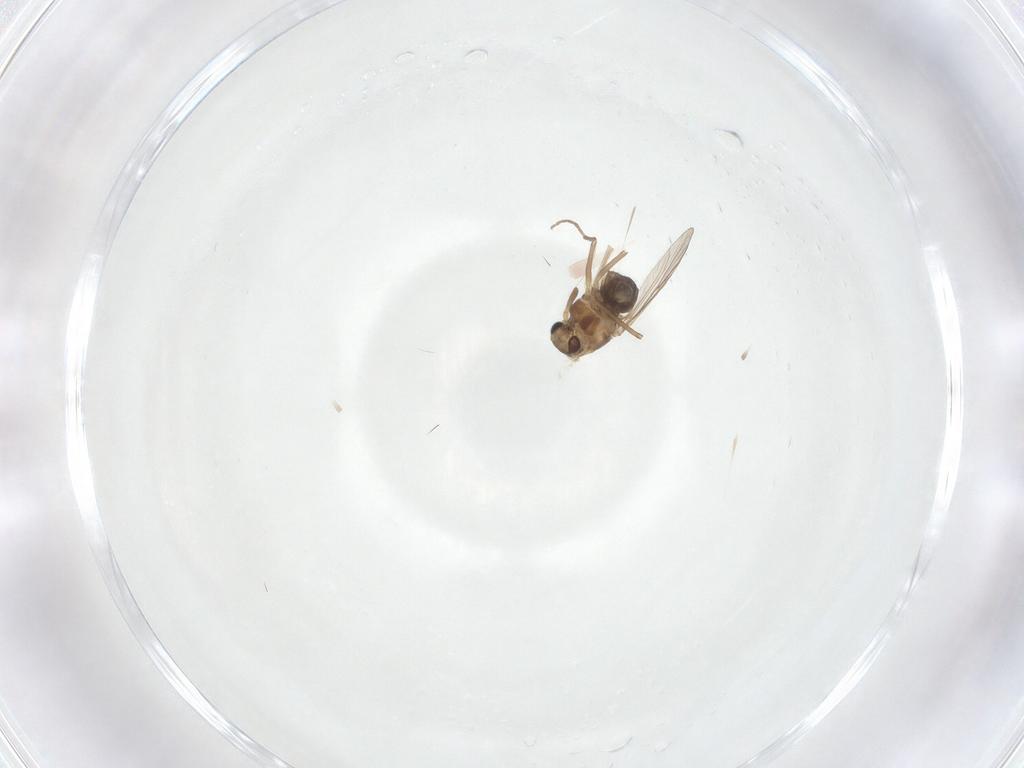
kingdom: Animalia
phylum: Arthropoda
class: Insecta
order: Diptera
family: Chironomidae
